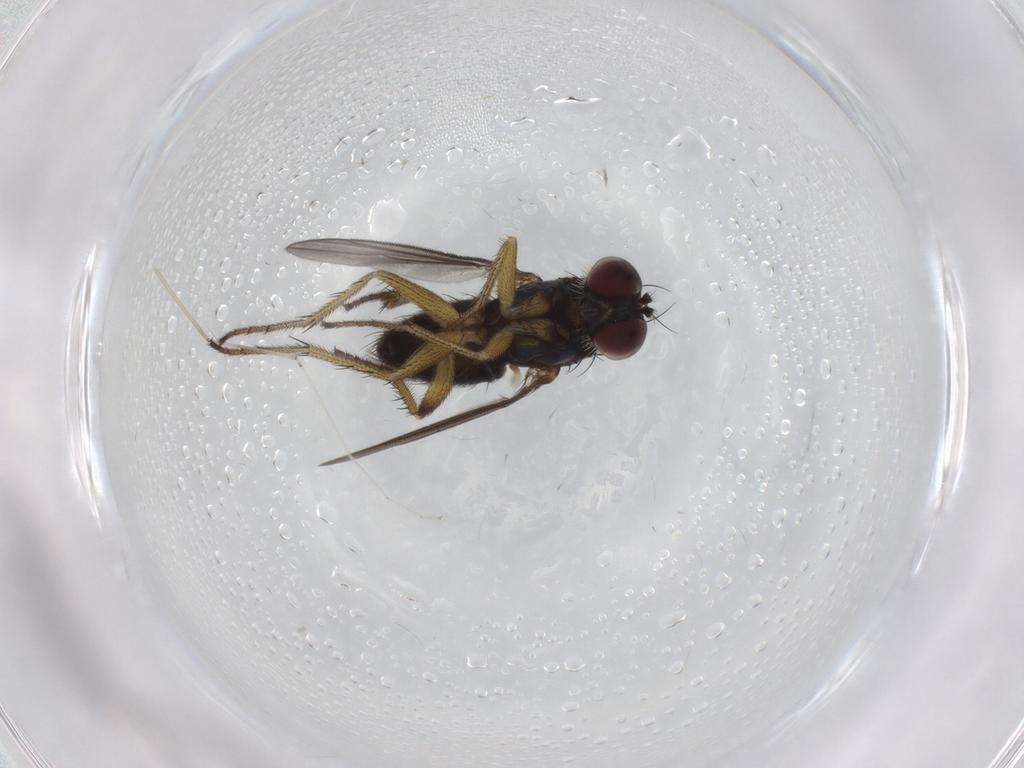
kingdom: Animalia
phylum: Arthropoda
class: Insecta
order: Diptera
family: Dolichopodidae
